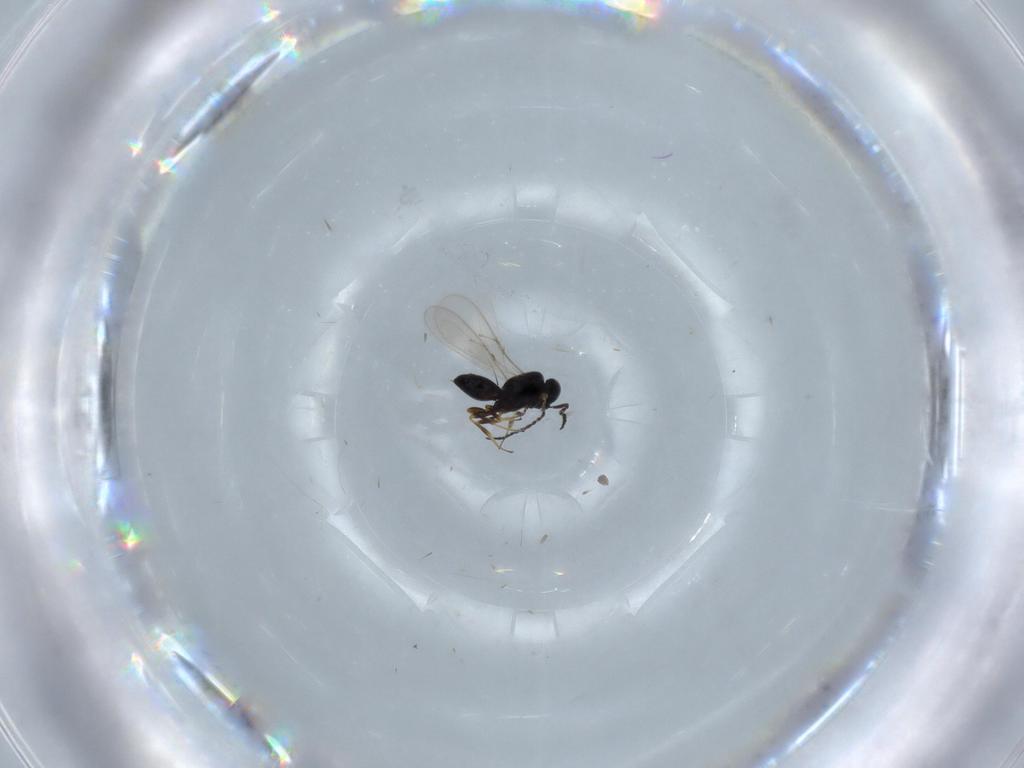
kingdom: Animalia
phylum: Arthropoda
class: Insecta
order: Hymenoptera
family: Scelionidae
